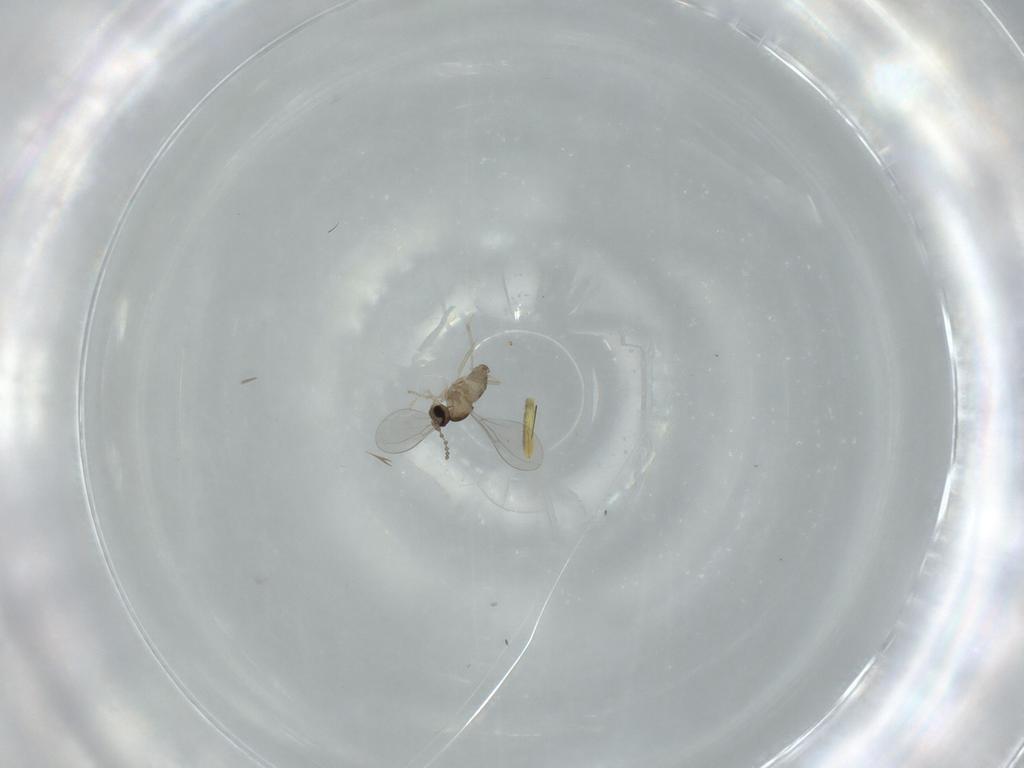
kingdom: Animalia
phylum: Arthropoda
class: Insecta
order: Diptera
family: Cecidomyiidae
